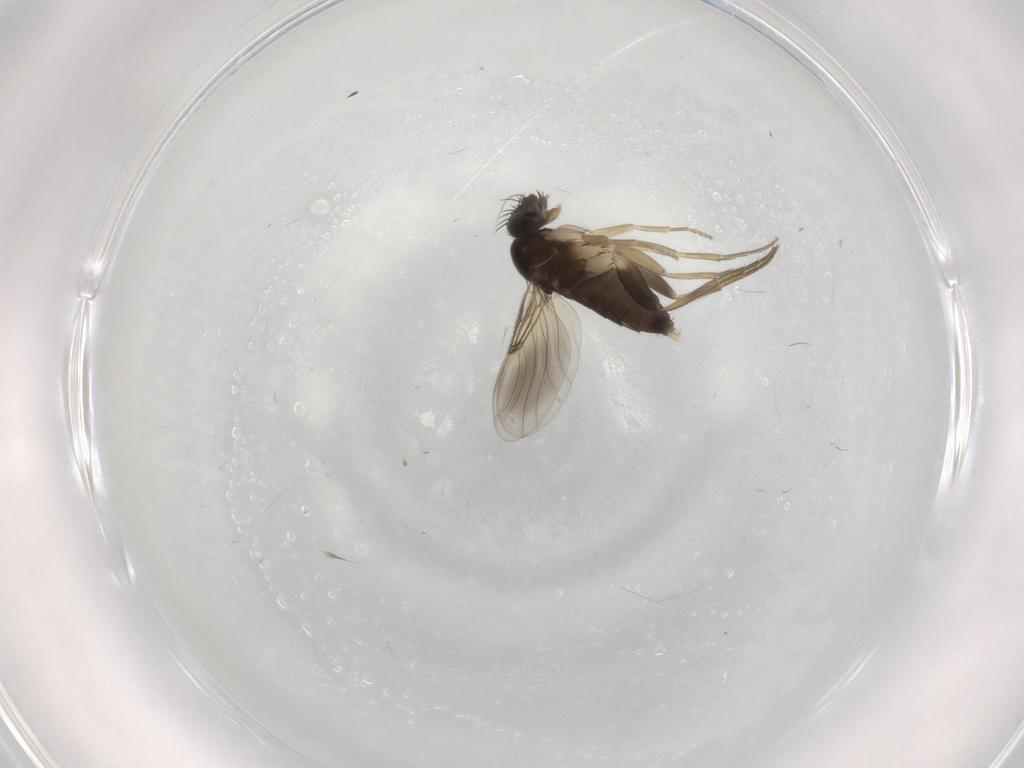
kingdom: Animalia
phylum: Arthropoda
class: Insecta
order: Diptera
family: Phoridae
